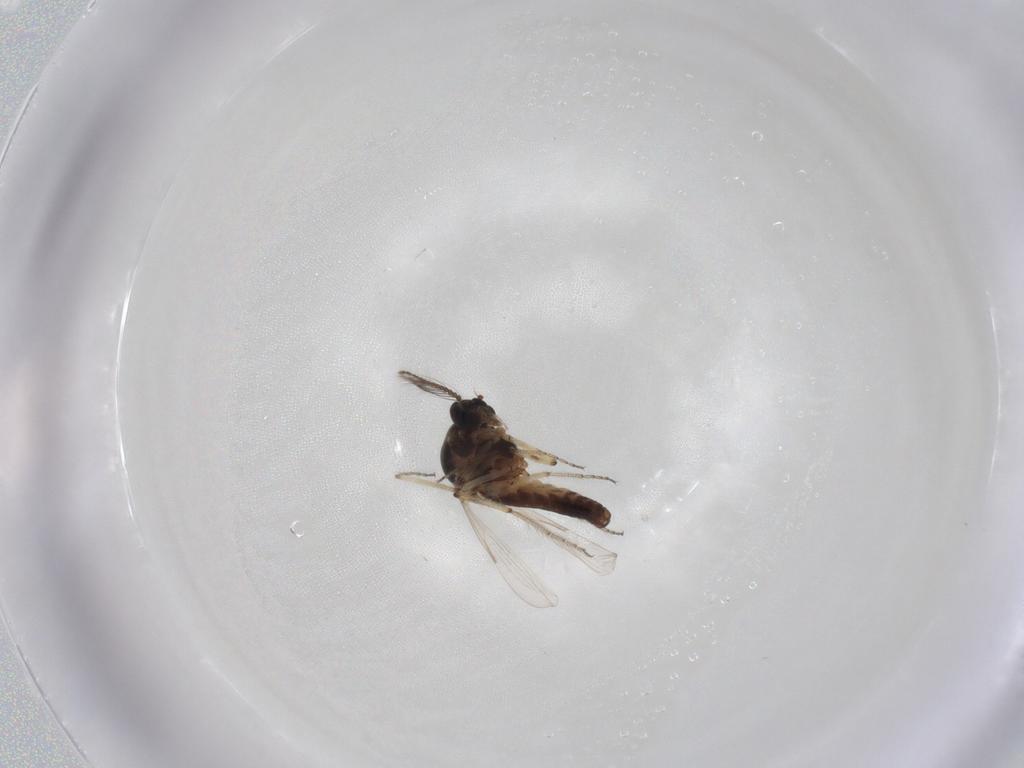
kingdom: Animalia
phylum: Arthropoda
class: Insecta
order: Diptera
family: Ceratopogonidae
